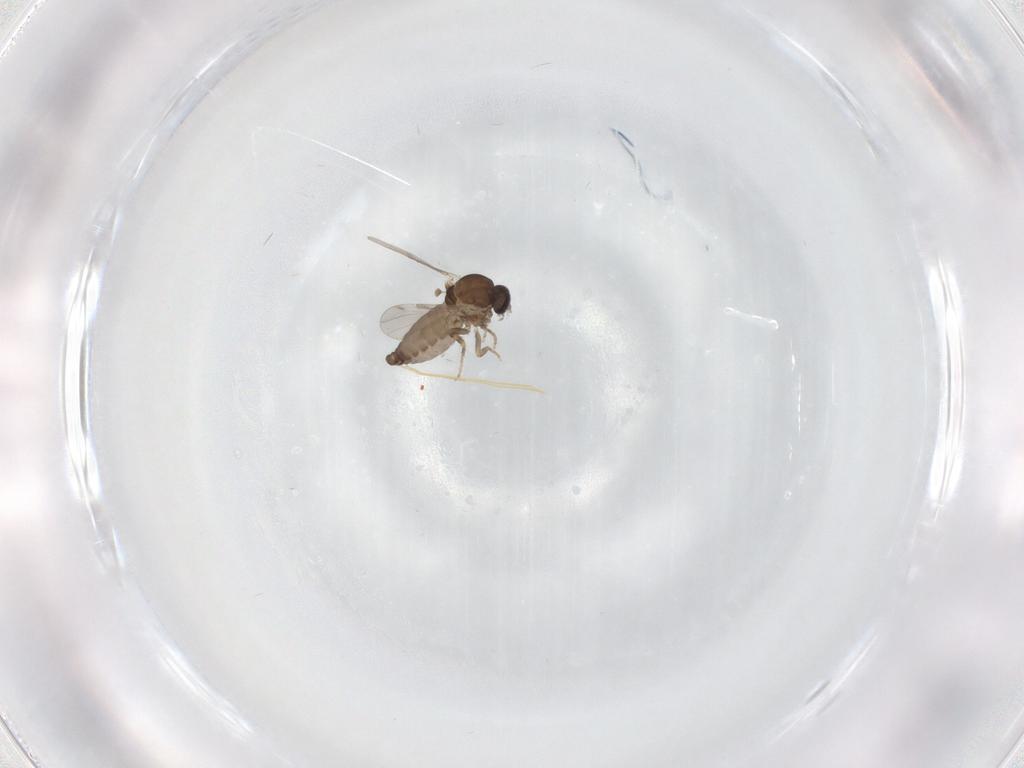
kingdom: Animalia
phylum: Arthropoda
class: Insecta
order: Diptera
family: Ceratopogonidae
